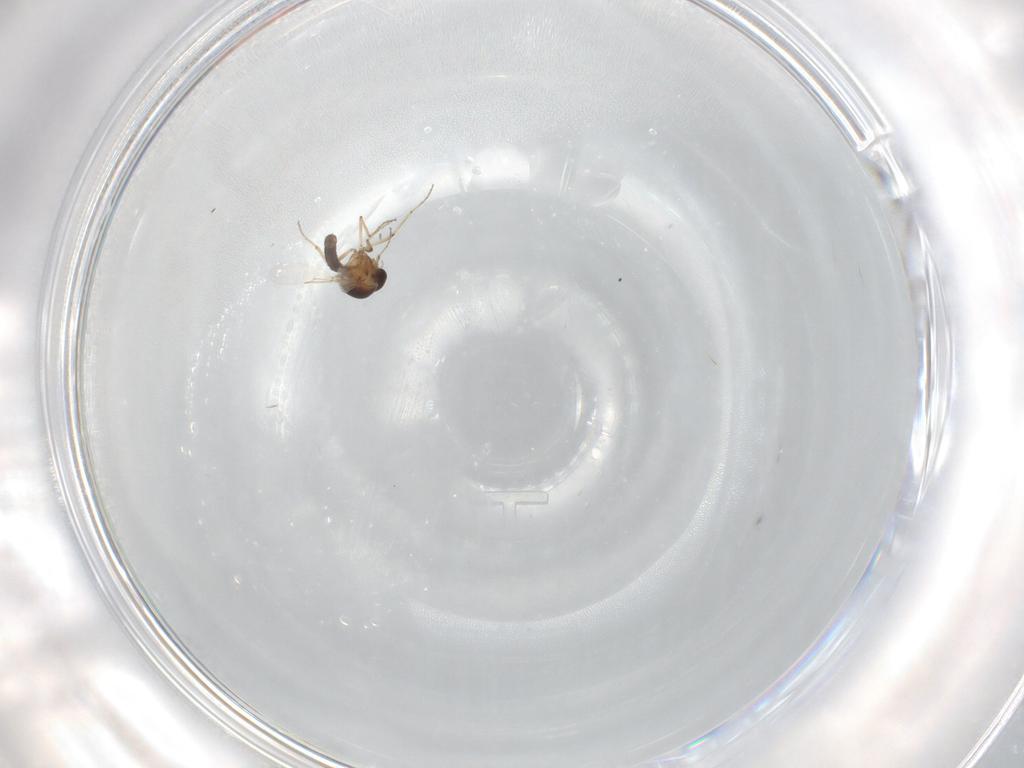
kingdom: Animalia
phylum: Arthropoda
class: Insecta
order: Diptera
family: Ceratopogonidae
